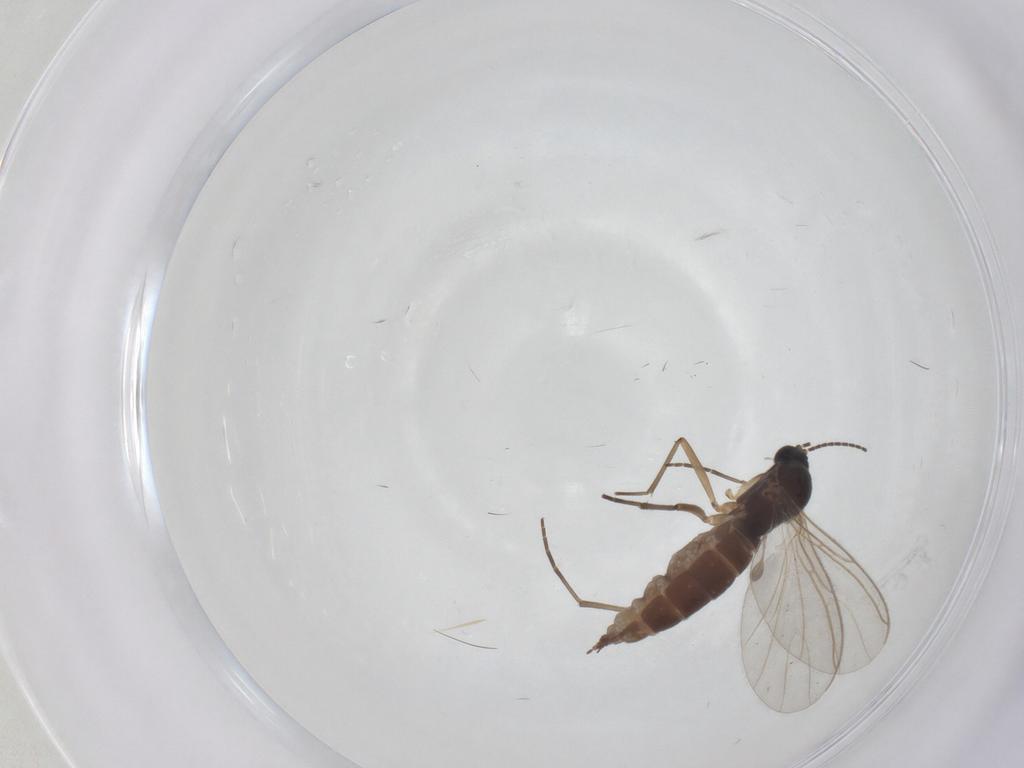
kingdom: Animalia
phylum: Arthropoda
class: Insecta
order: Diptera
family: Sciaridae
